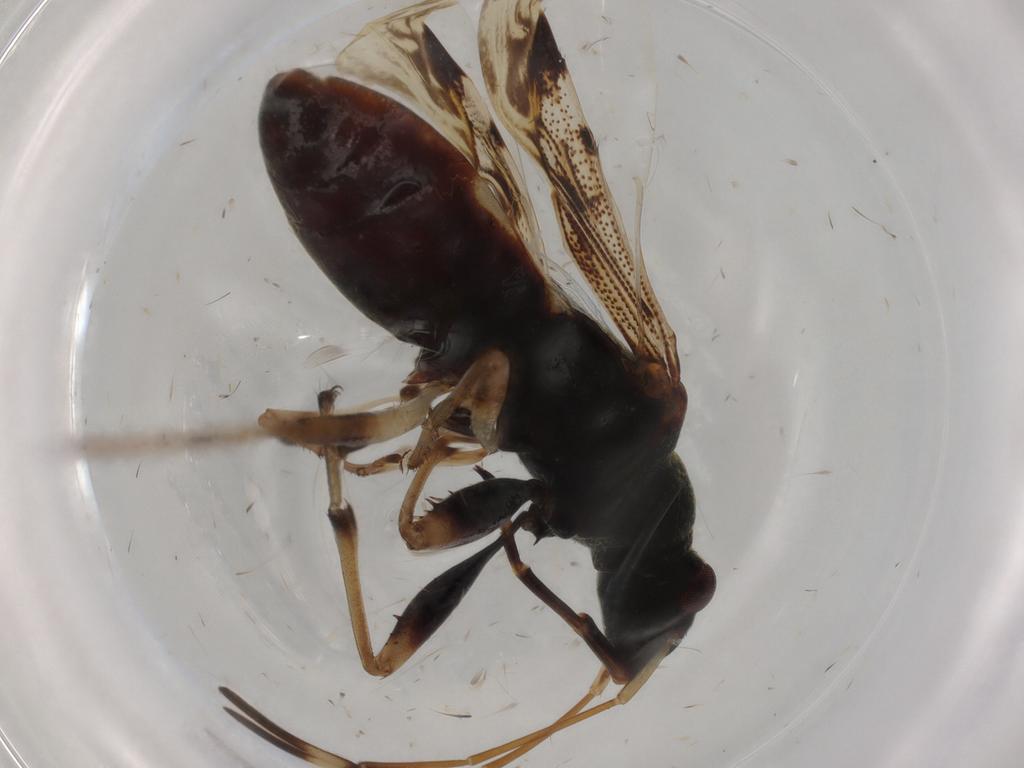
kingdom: Animalia
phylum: Arthropoda
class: Insecta
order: Hemiptera
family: Rhyparochromidae
